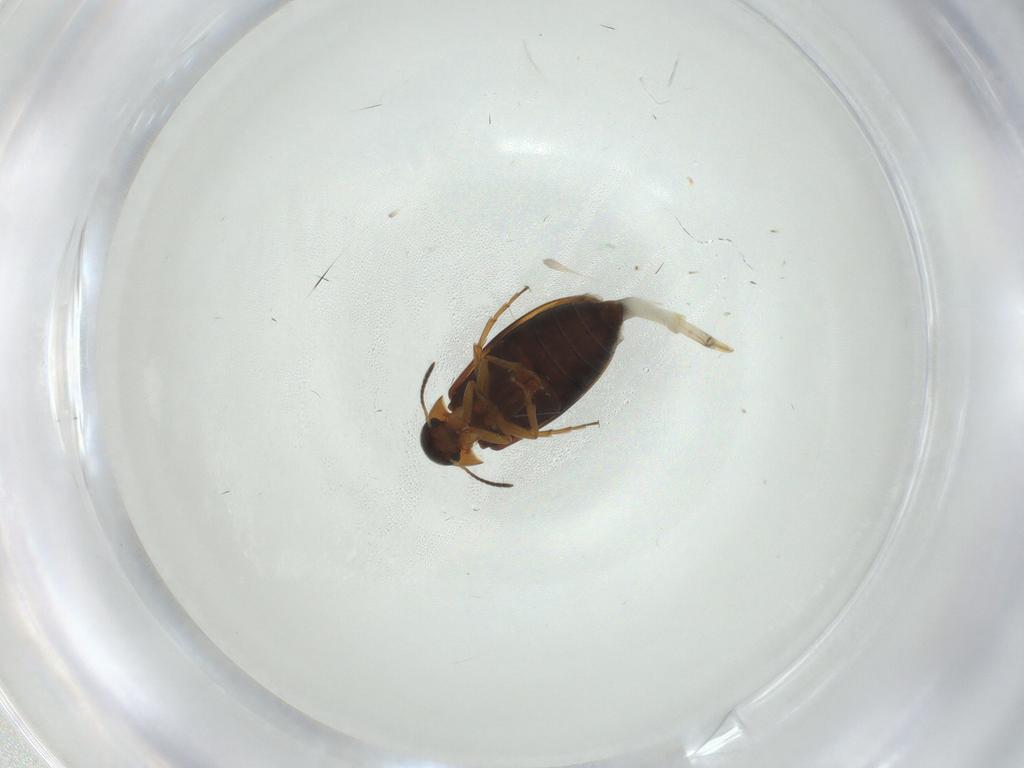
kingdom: Animalia
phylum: Arthropoda
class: Insecta
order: Coleoptera
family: Scraptiidae
